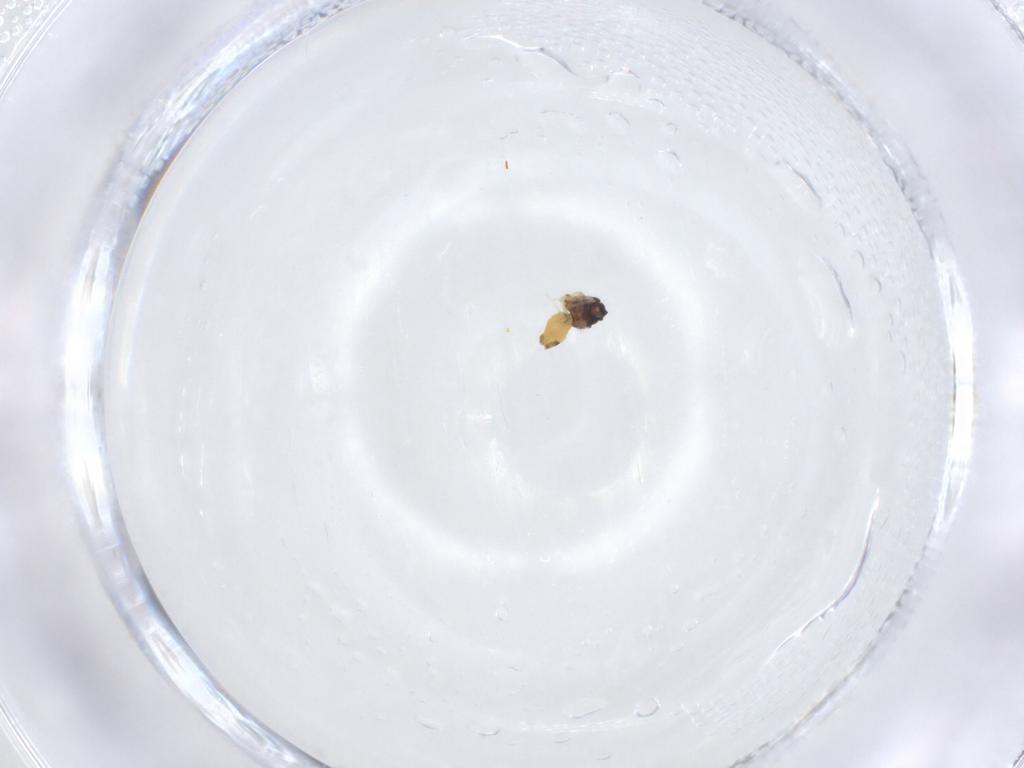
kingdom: Animalia
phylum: Arthropoda
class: Insecta
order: Hemiptera
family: Aleyrodidae
